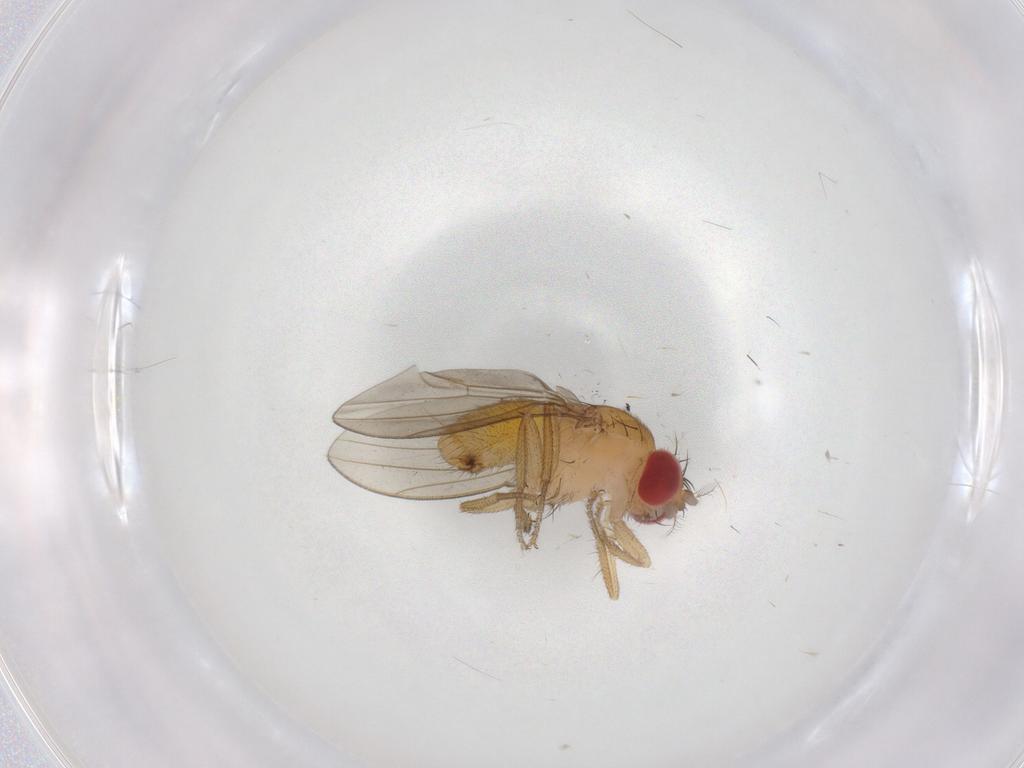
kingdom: Animalia
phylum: Arthropoda
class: Insecta
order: Diptera
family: Drosophilidae
